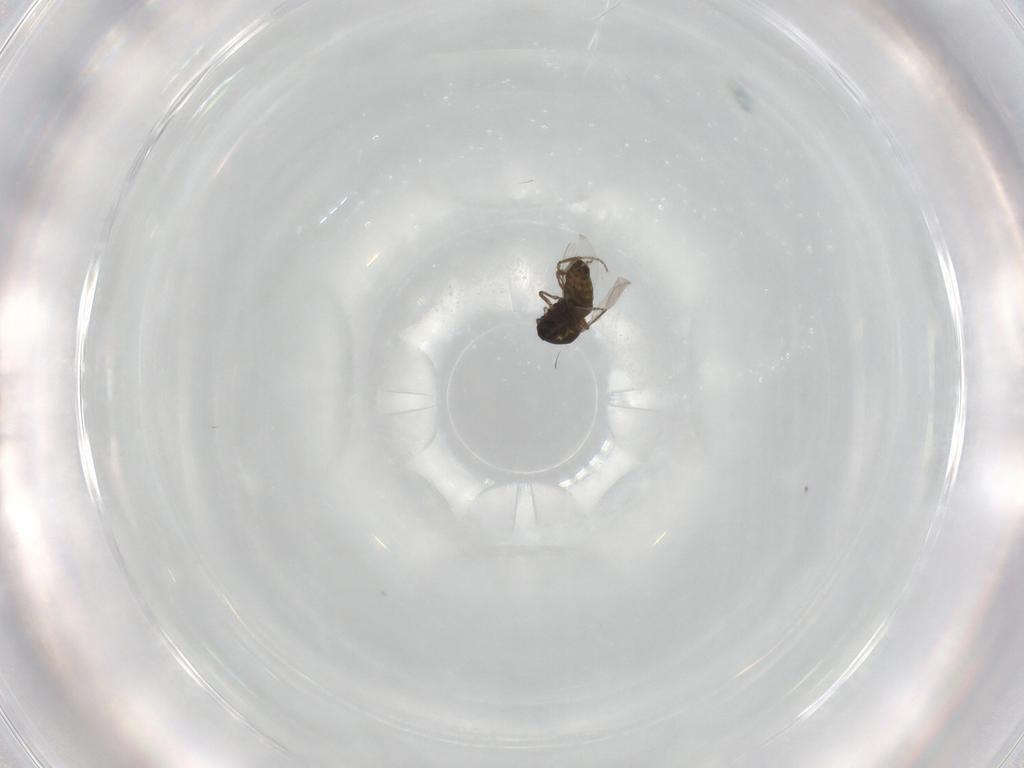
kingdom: Animalia
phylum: Arthropoda
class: Insecta
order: Diptera
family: Ceratopogonidae
